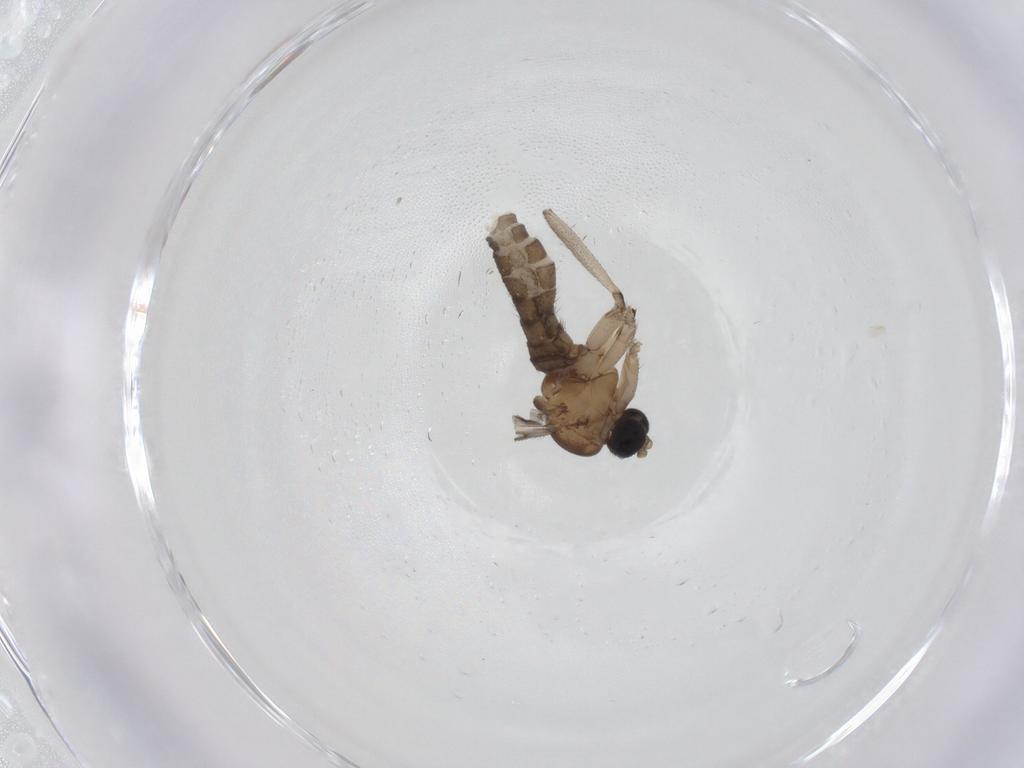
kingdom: Animalia
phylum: Arthropoda
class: Insecta
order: Diptera
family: Sciaridae
